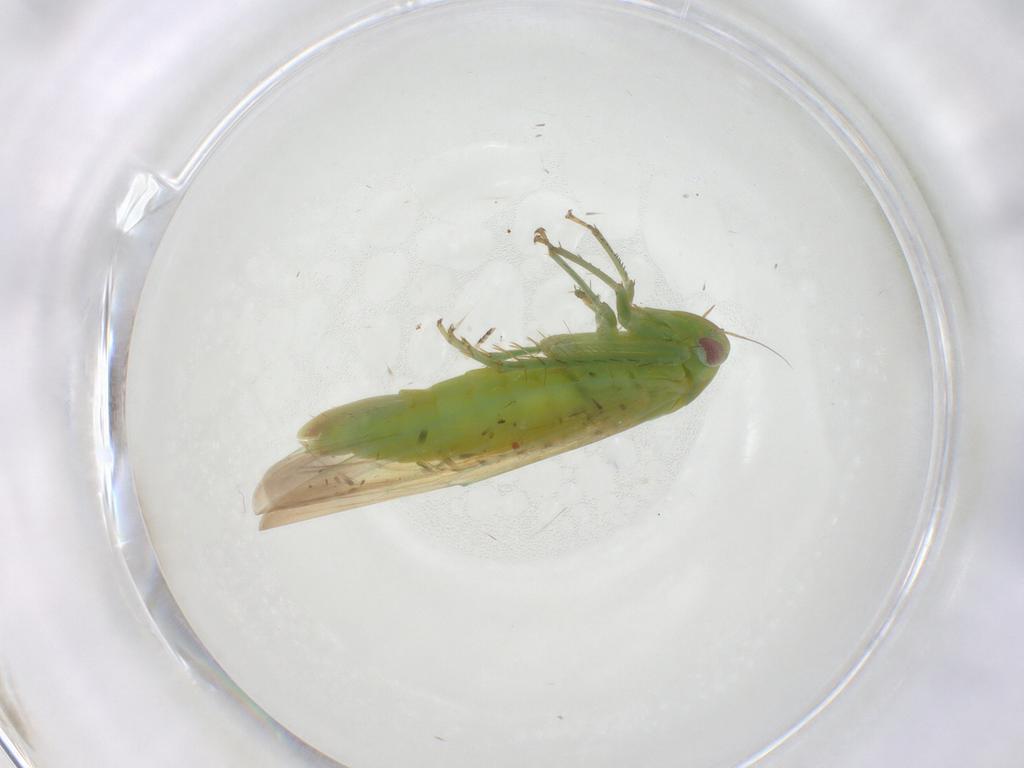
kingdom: Animalia
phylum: Arthropoda
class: Insecta
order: Hemiptera
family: Cicadellidae
